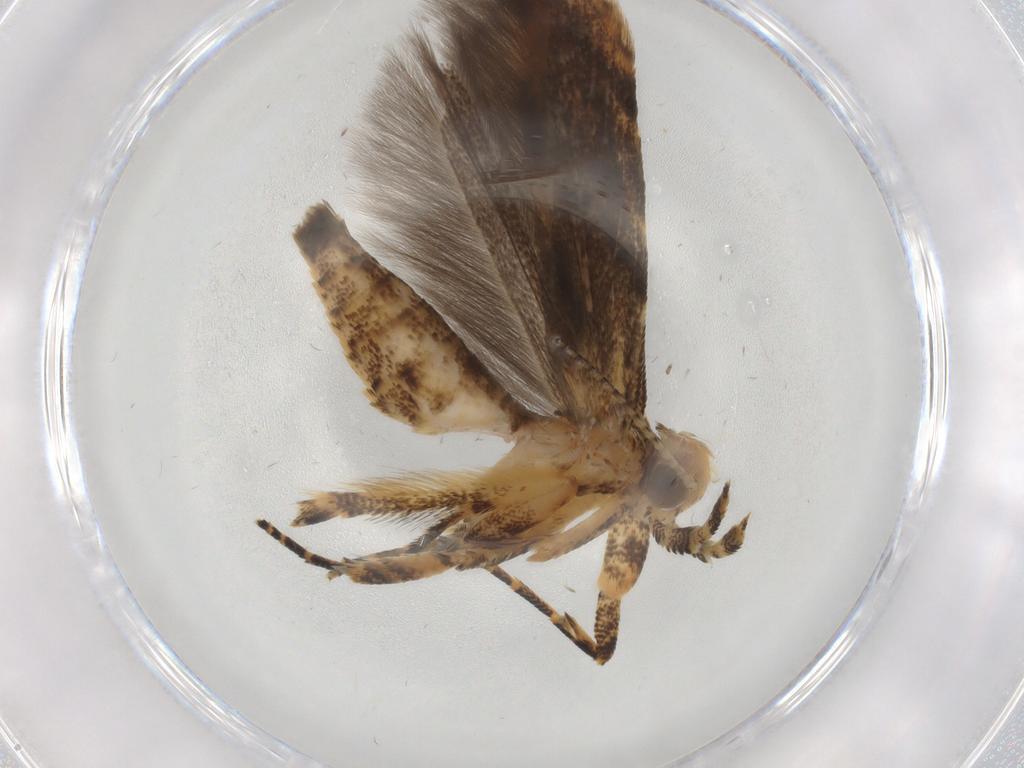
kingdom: Animalia
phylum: Arthropoda
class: Insecta
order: Lepidoptera
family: Gelechiidae
